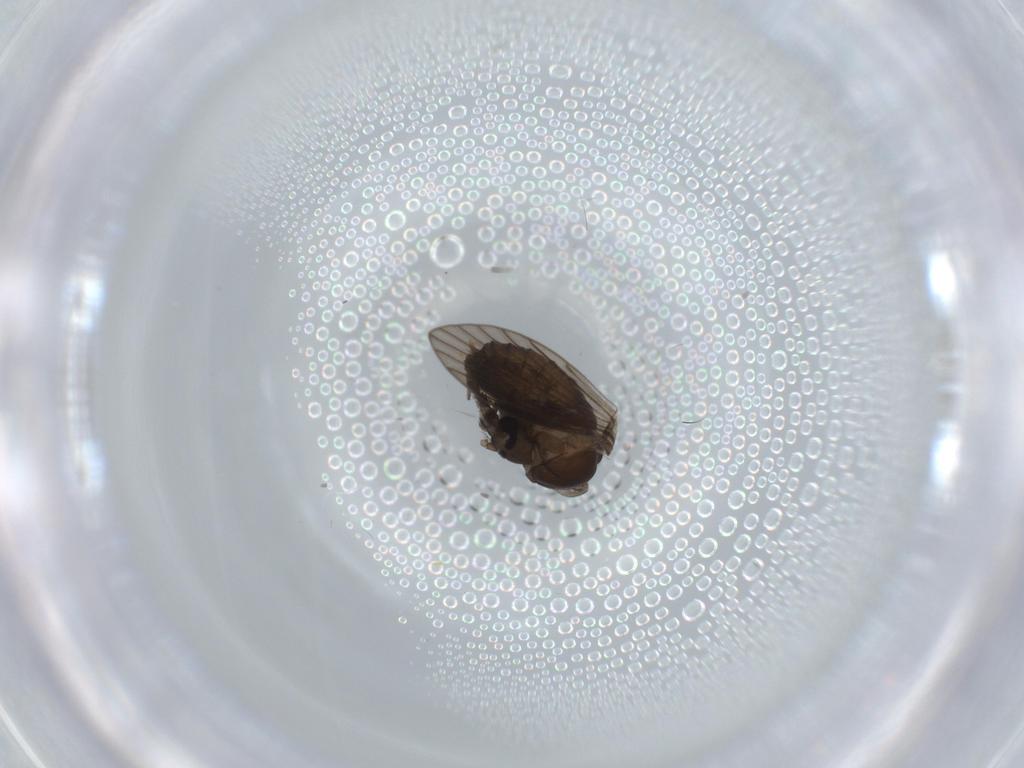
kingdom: Animalia
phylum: Arthropoda
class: Insecta
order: Diptera
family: Psychodidae
